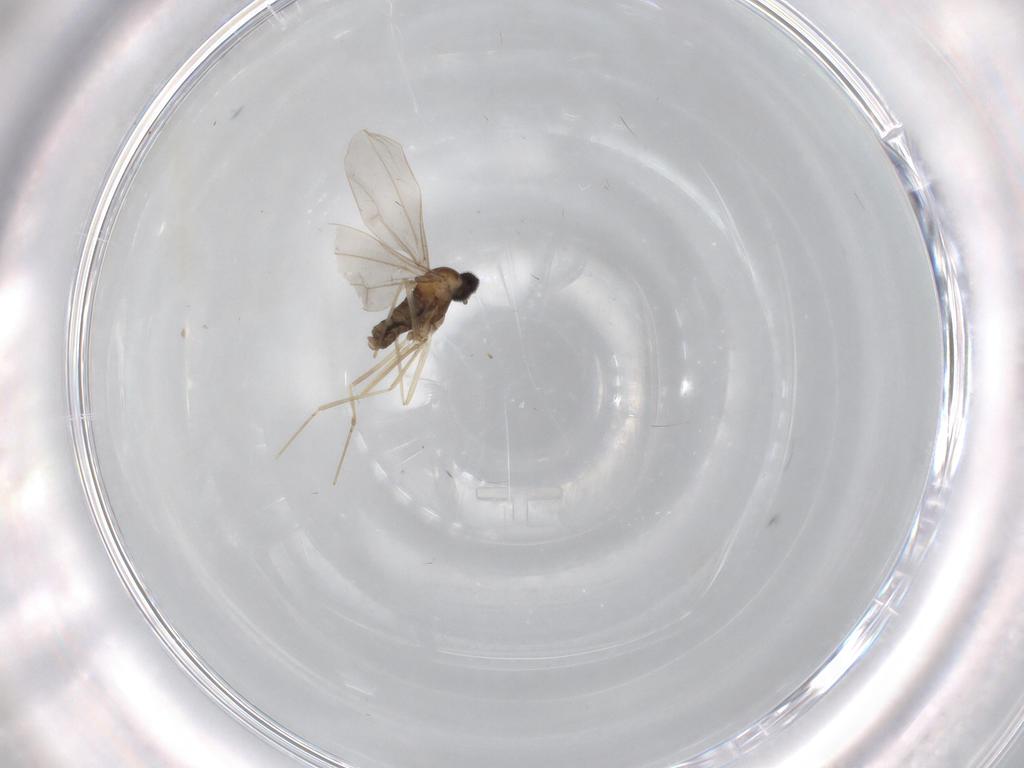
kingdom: Animalia
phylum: Arthropoda
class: Insecta
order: Diptera
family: Cecidomyiidae
